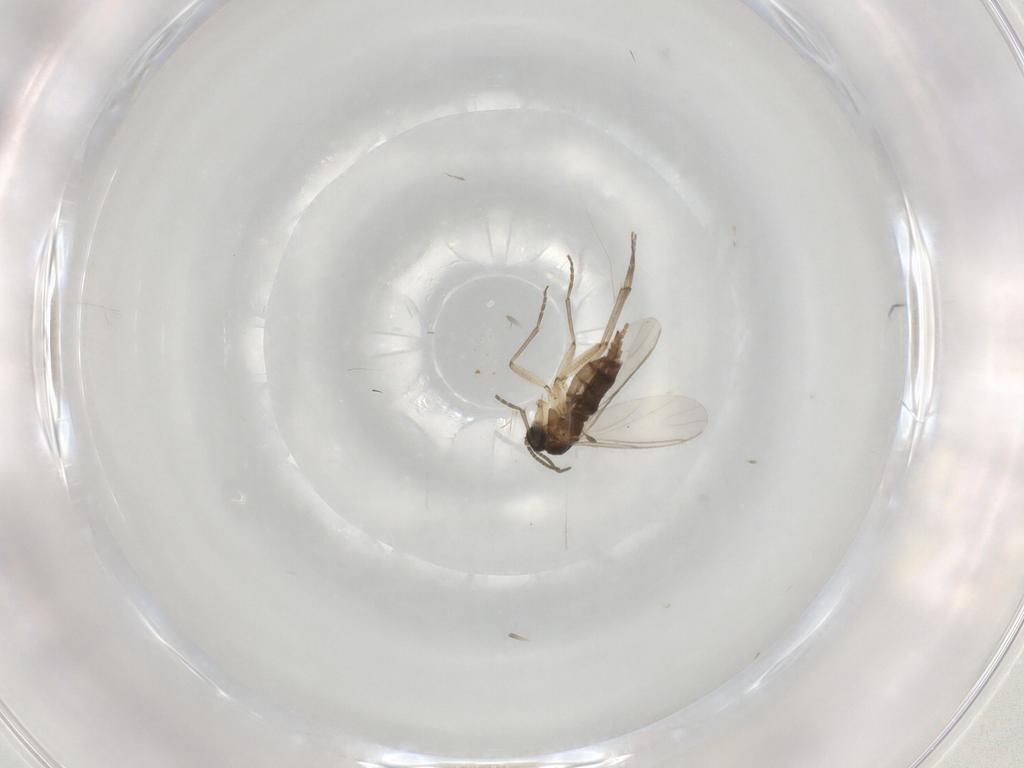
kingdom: Animalia
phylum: Arthropoda
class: Insecta
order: Diptera
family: Sciaridae
